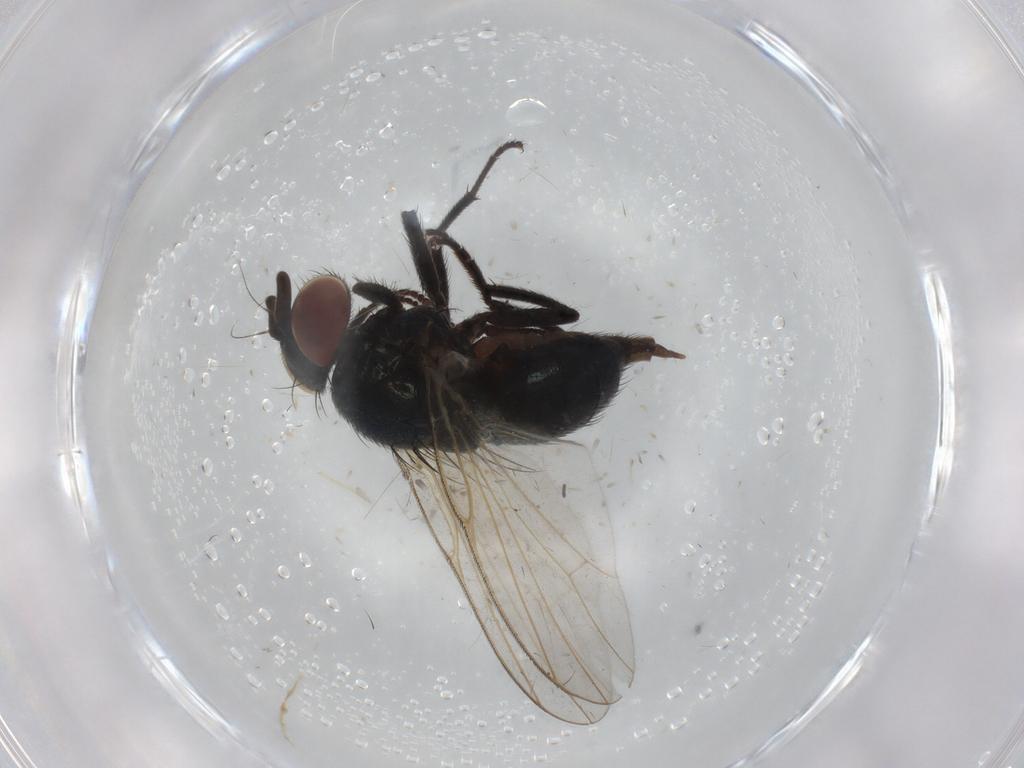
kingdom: Animalia
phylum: Arthropoda
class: Insecta
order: Diptera
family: Lonchaeidae
